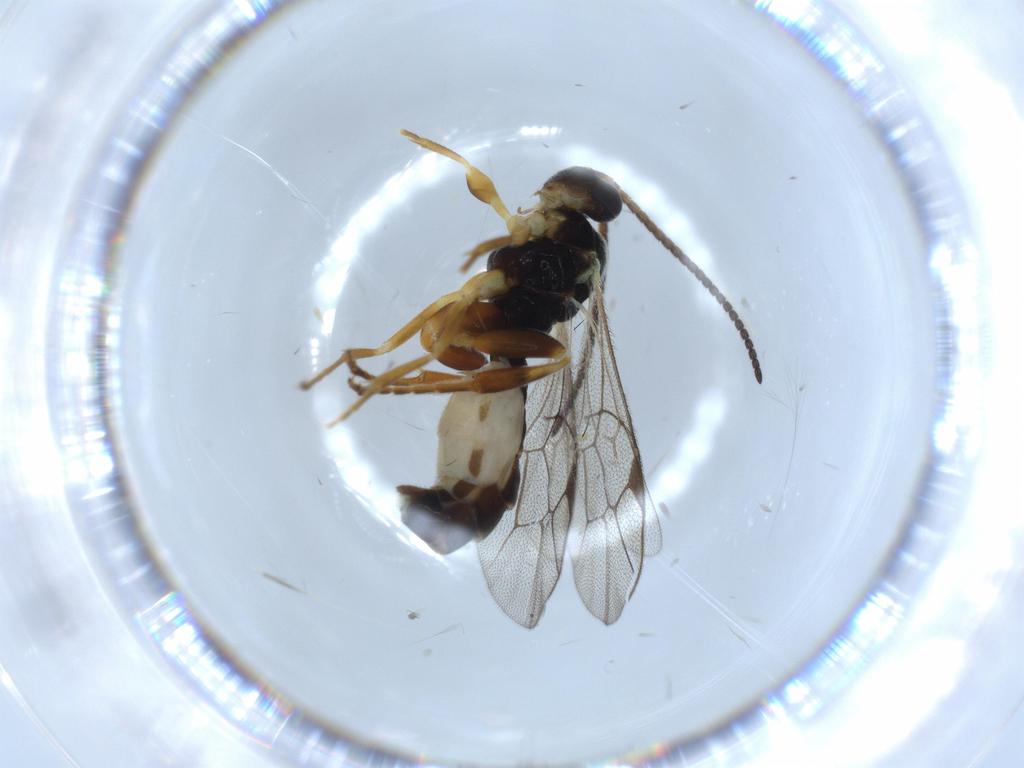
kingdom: Animalia
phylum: Arthropoda
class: Insecta
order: Hymenoptera
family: Ichneumonidae
